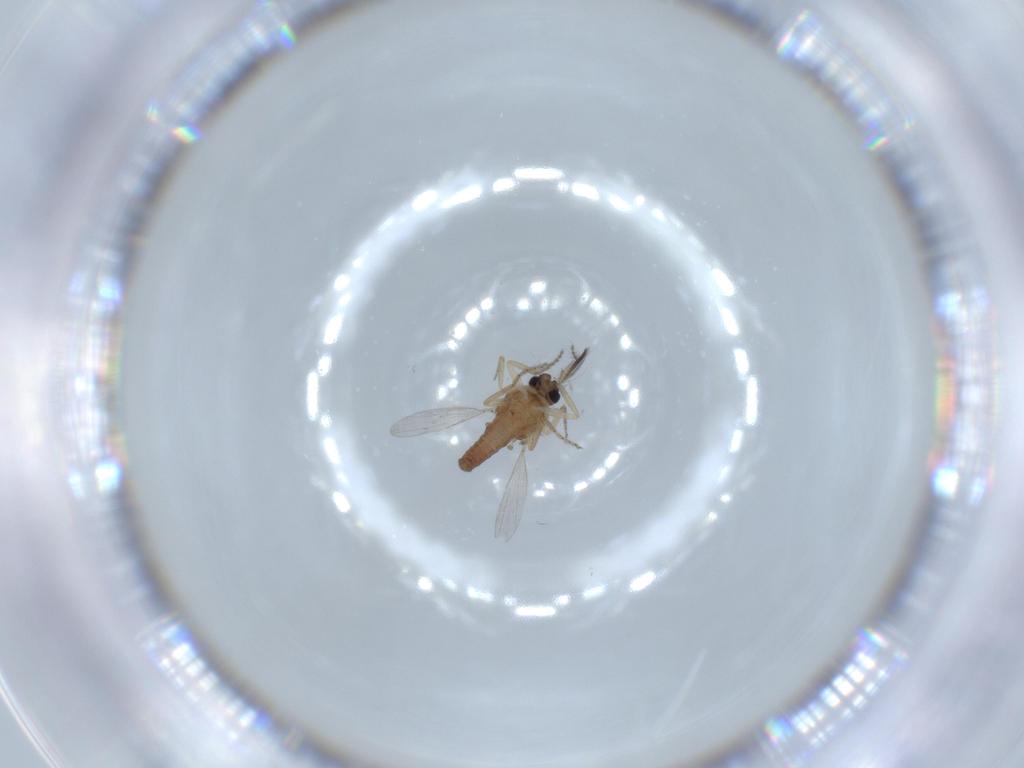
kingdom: Animalia
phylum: Arthropoda
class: Insecta
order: Diptera
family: Ceratopogonidae
